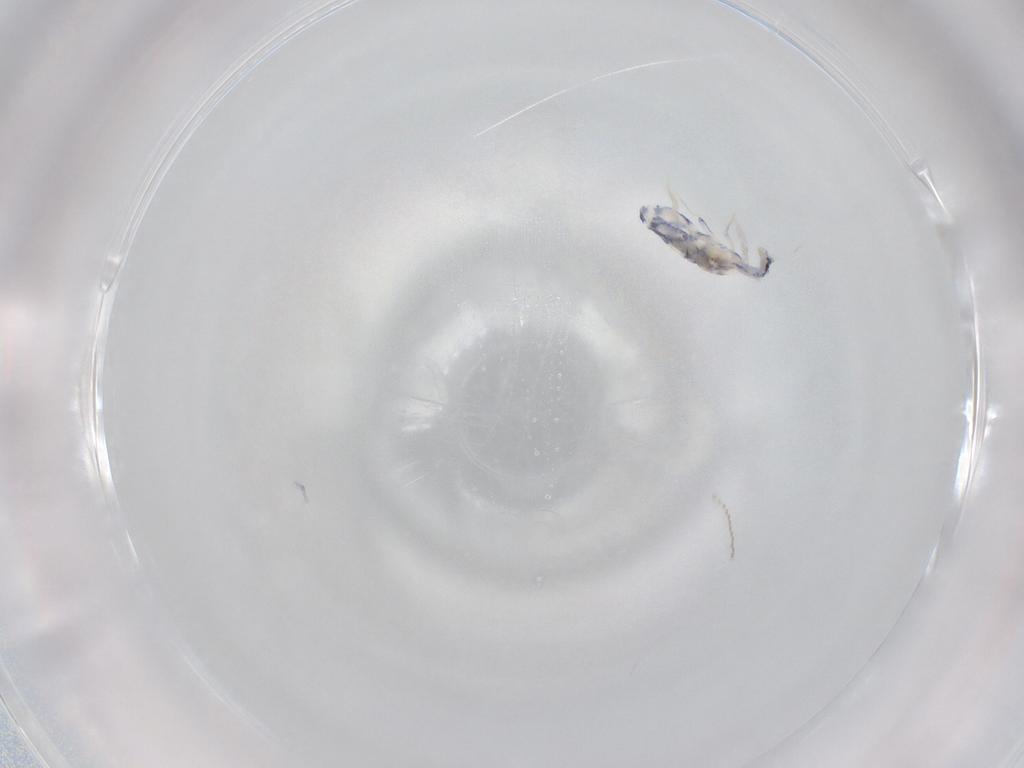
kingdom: Animalia
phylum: Arthropoda
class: Collembola
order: Entomobryomorpha
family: Entomobryidae
